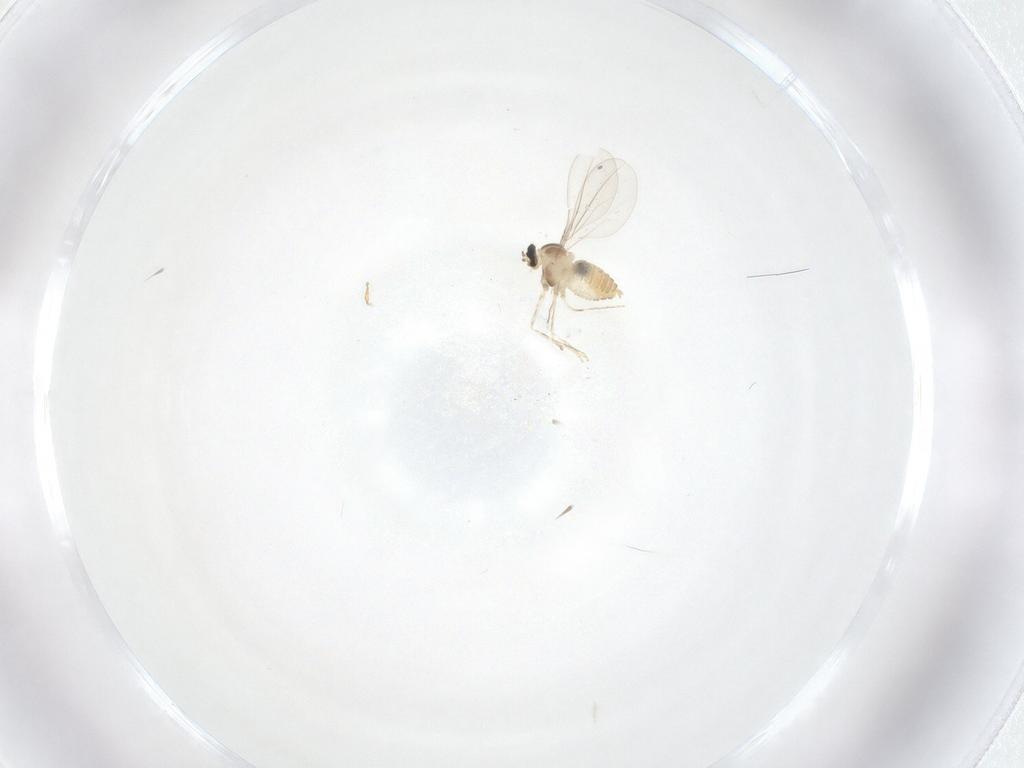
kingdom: Animalia
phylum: Arthropoda
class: Insecta
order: Diptera
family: Cecidomyiidae
